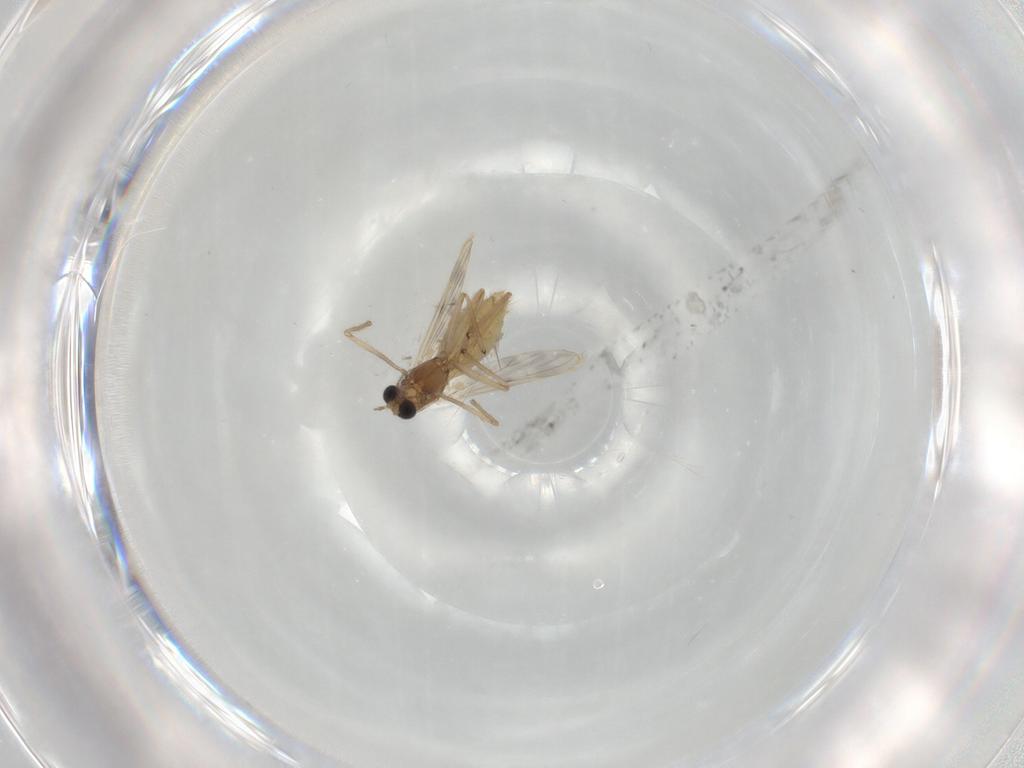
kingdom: Animalia
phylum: Arthropoda
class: Insecta
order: Diptera
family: Chironomidae
